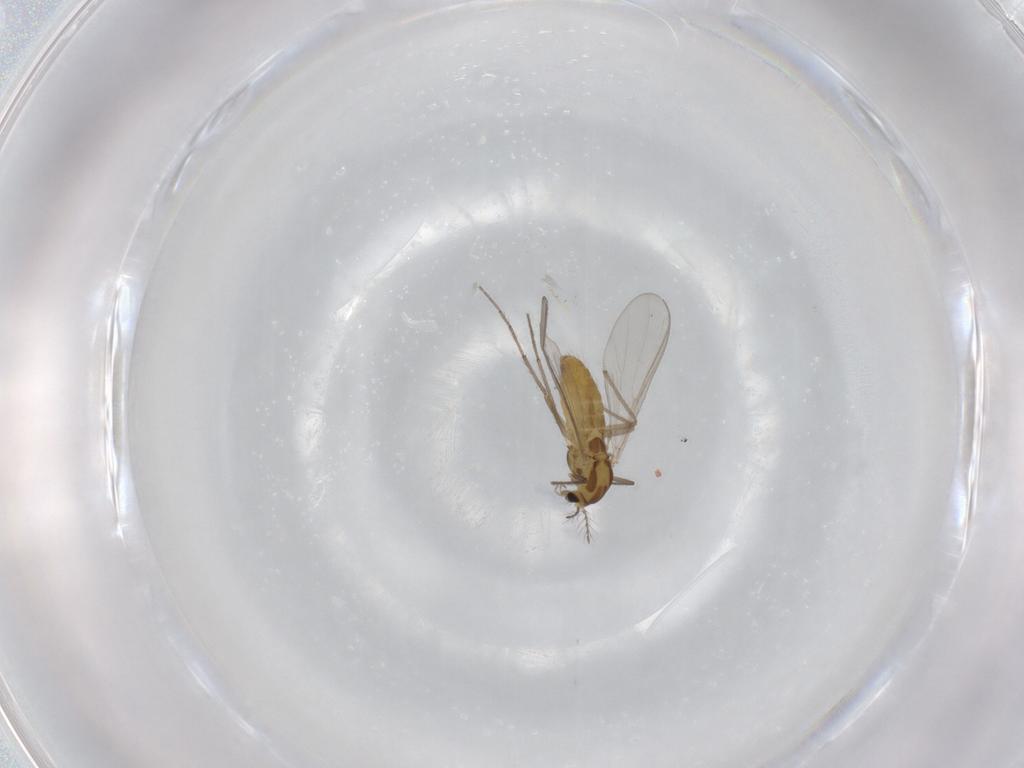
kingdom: Animalia
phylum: Arthropoda
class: Insecta
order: Diptera
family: Chironomidae
